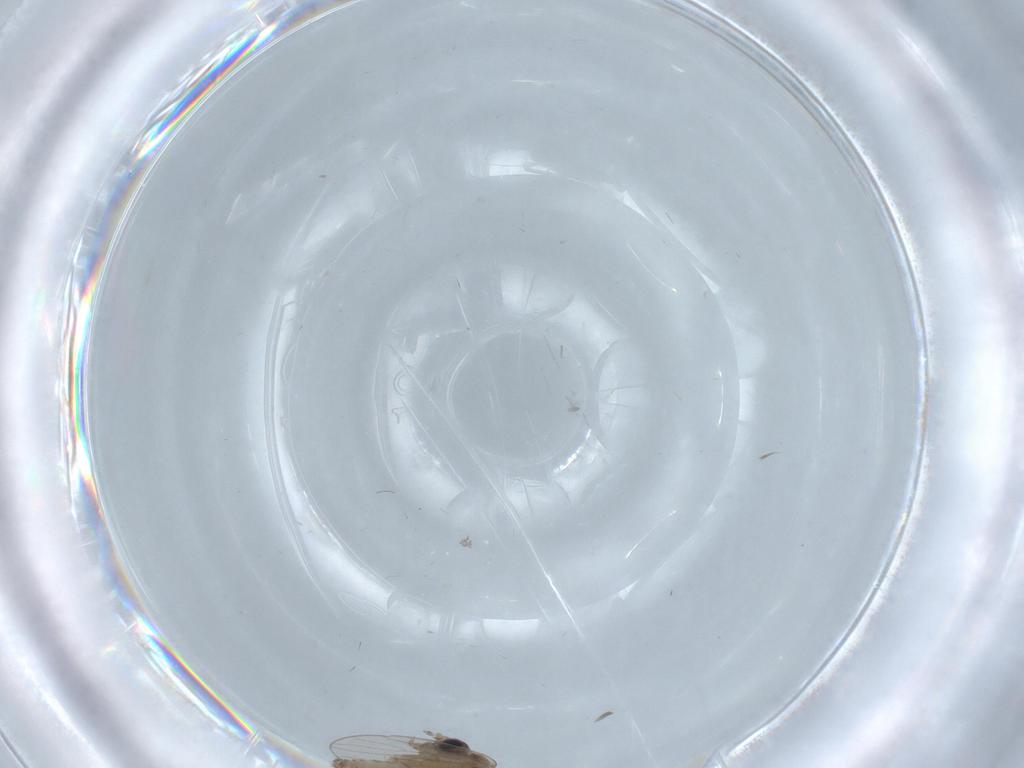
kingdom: Animalia
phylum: Arthropoda
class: Insecta
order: Diptera
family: Psychodidae
